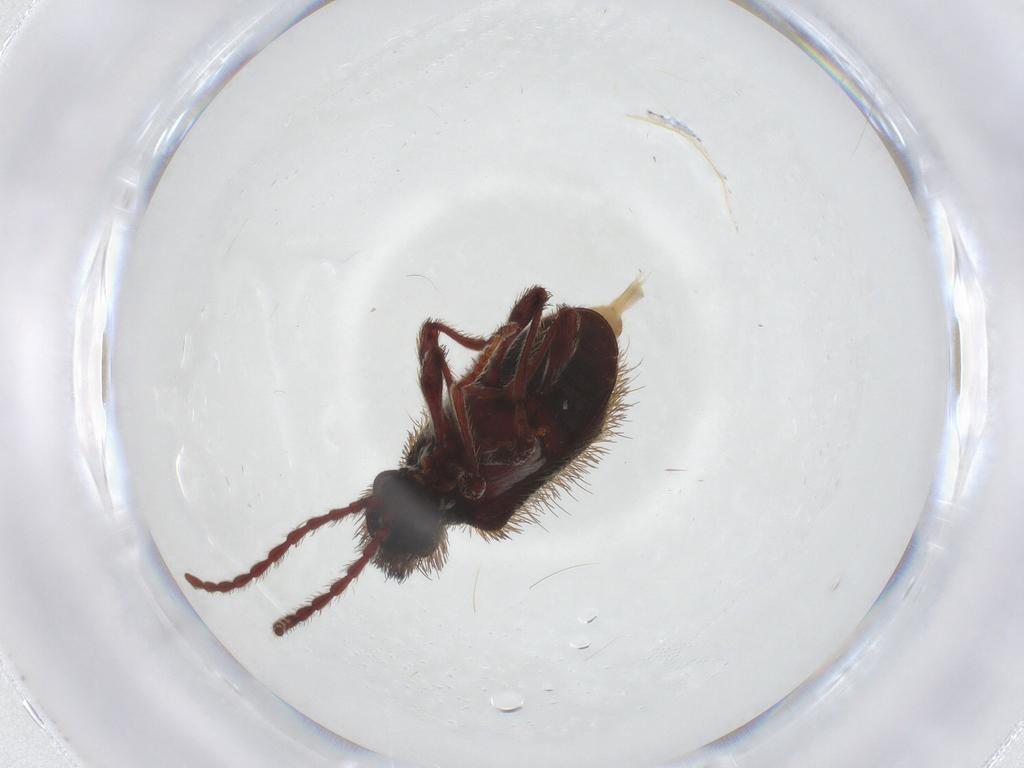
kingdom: Animalia
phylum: Arthropoda
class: Insecta
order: Coleoptera
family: Ptinidae
